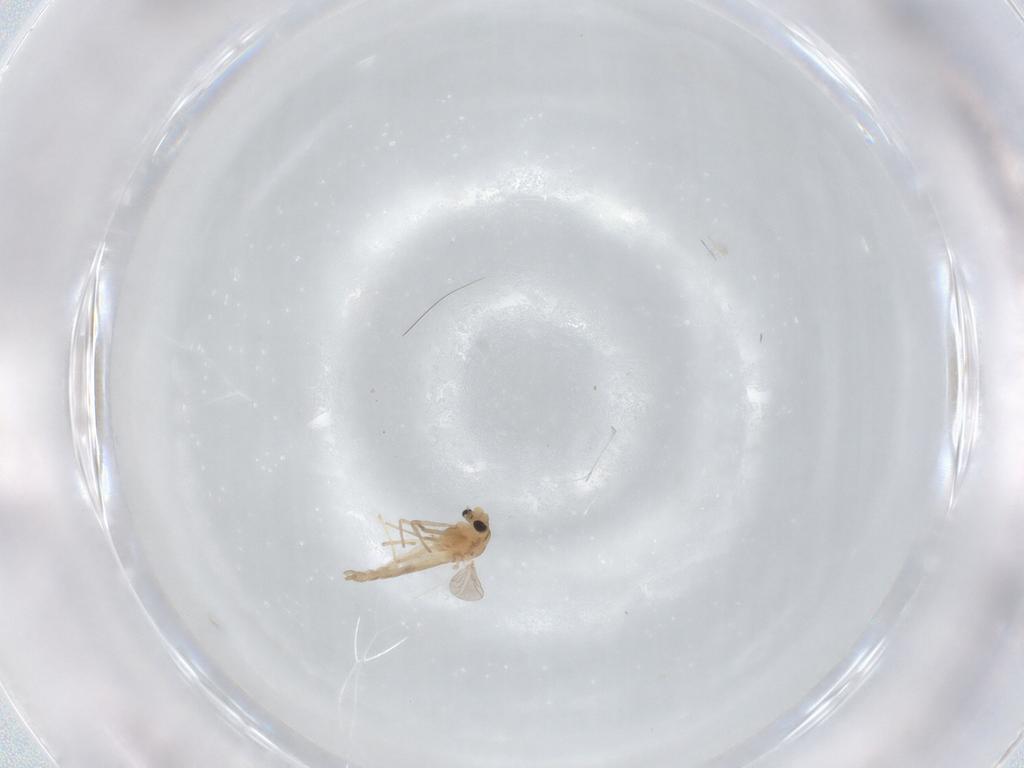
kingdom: Animalia
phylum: Arthropoda
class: Insecta
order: Diptera
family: Chironomidae
